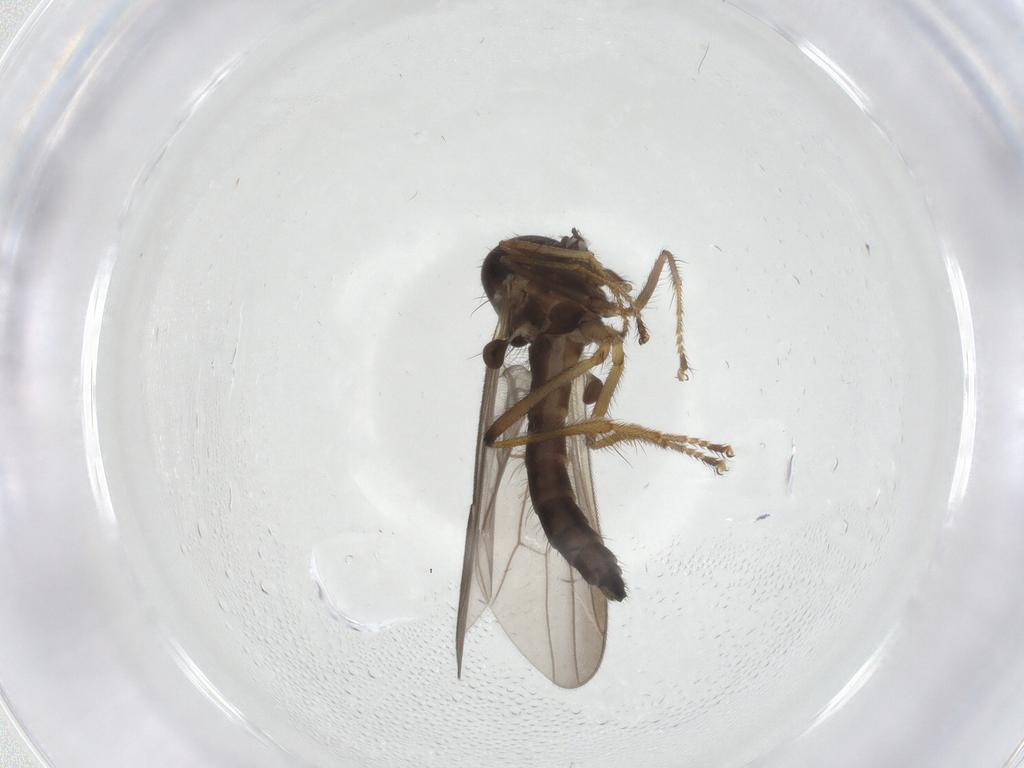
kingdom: Animalia
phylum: Arthropoda
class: Insecta
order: Diptera
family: Hybotidae
